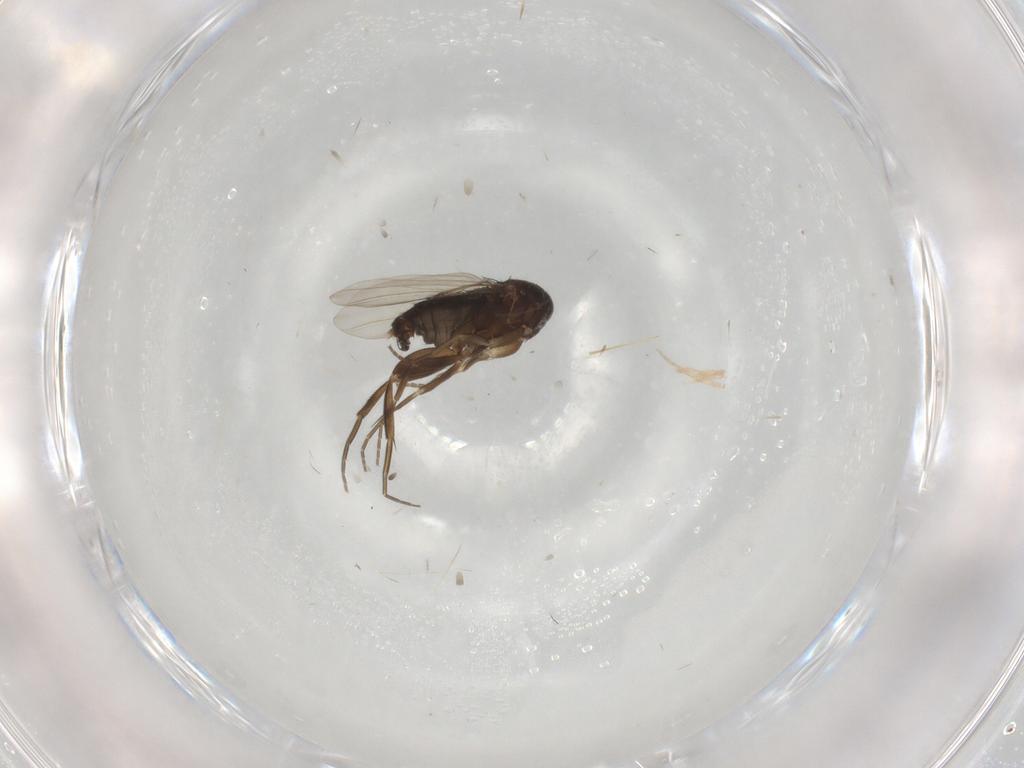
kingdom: Animalia
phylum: Arthropoda
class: Insecta
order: Diptera
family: Phoridae
